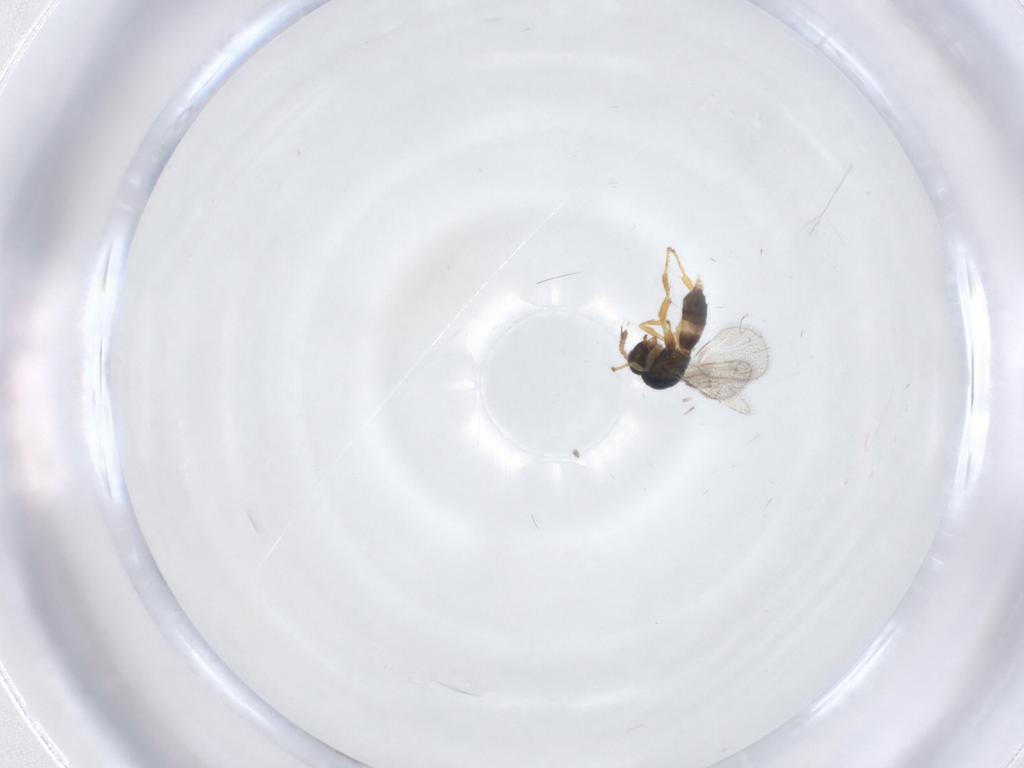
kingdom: Animalia
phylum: Arthropoda
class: Insecta
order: Hymenoptera
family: Torymidae
